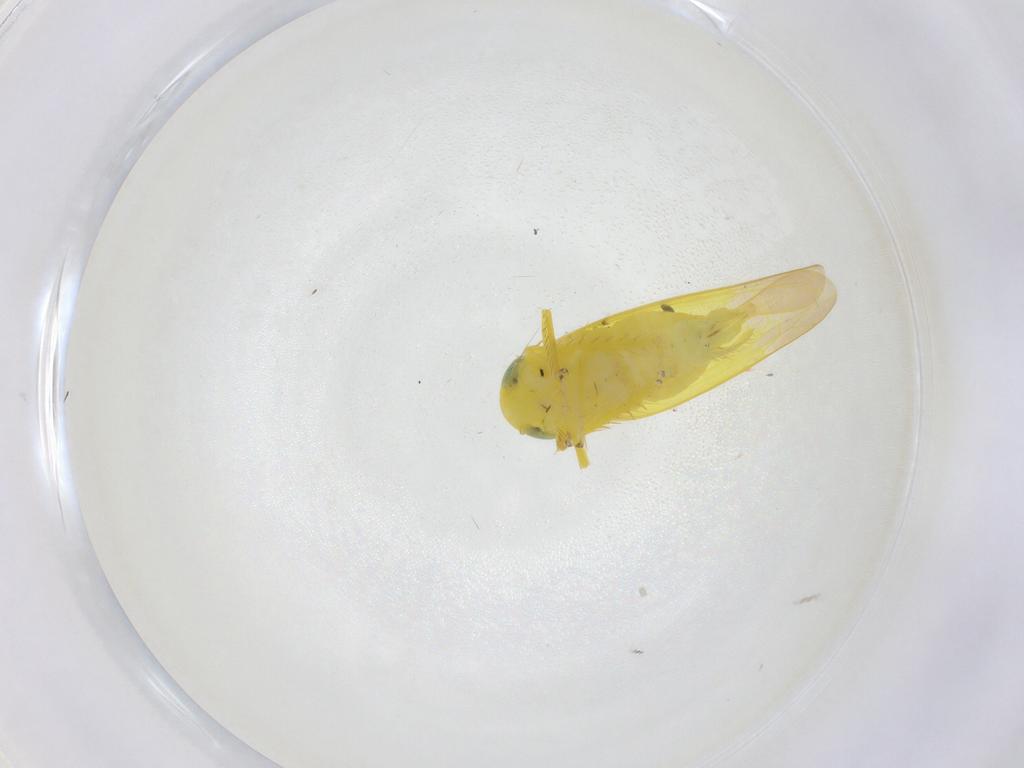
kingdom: Animalia
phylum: Arthropoda
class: Insecta
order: Hemiptera
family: Cicadellidae
